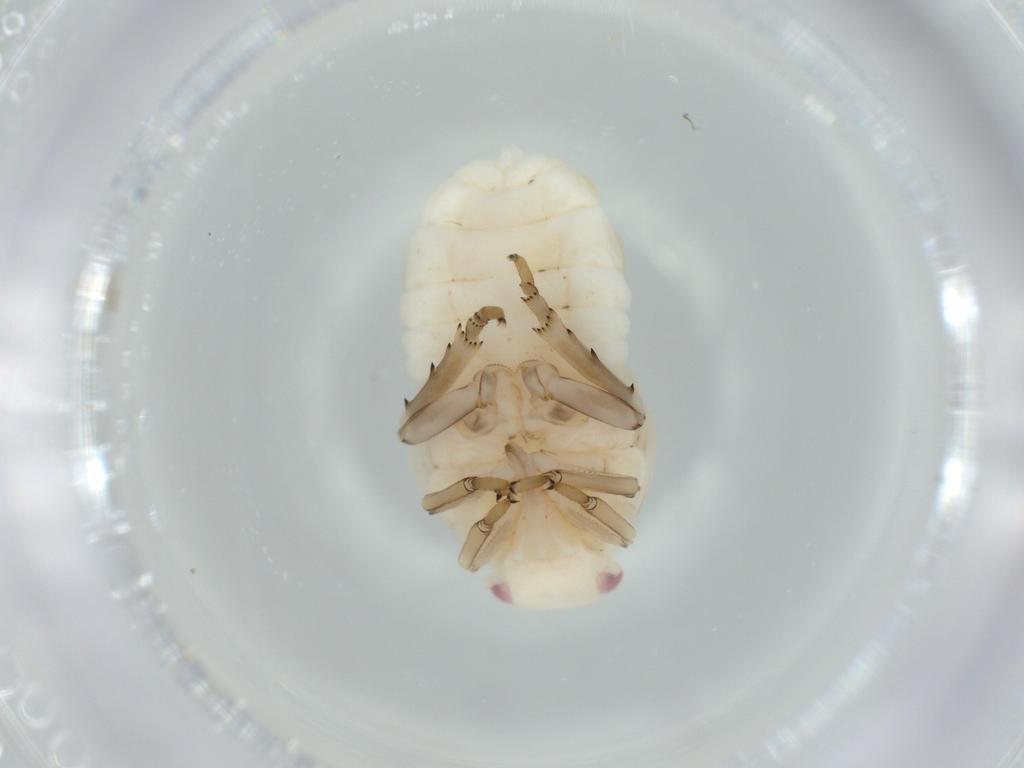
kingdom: Animalia
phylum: Arthropoda
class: Insecta
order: Hemiptera
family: Flatidae
